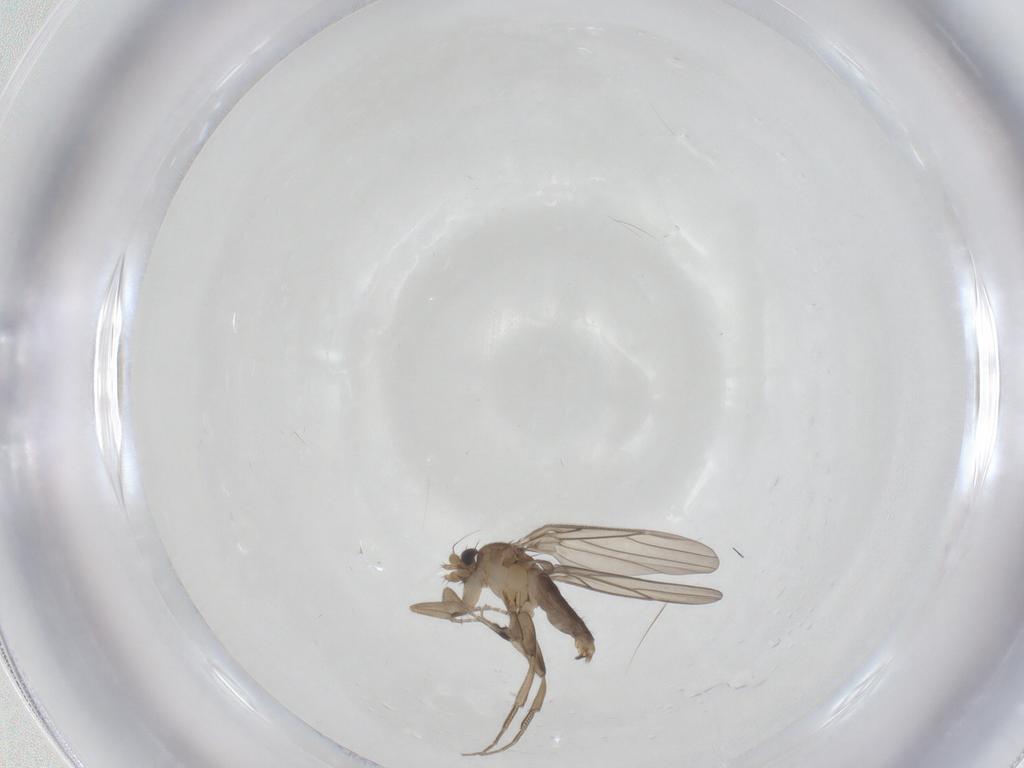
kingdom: Animalia
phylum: Arthropoda
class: Insecta
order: Diptera
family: Phoridae
